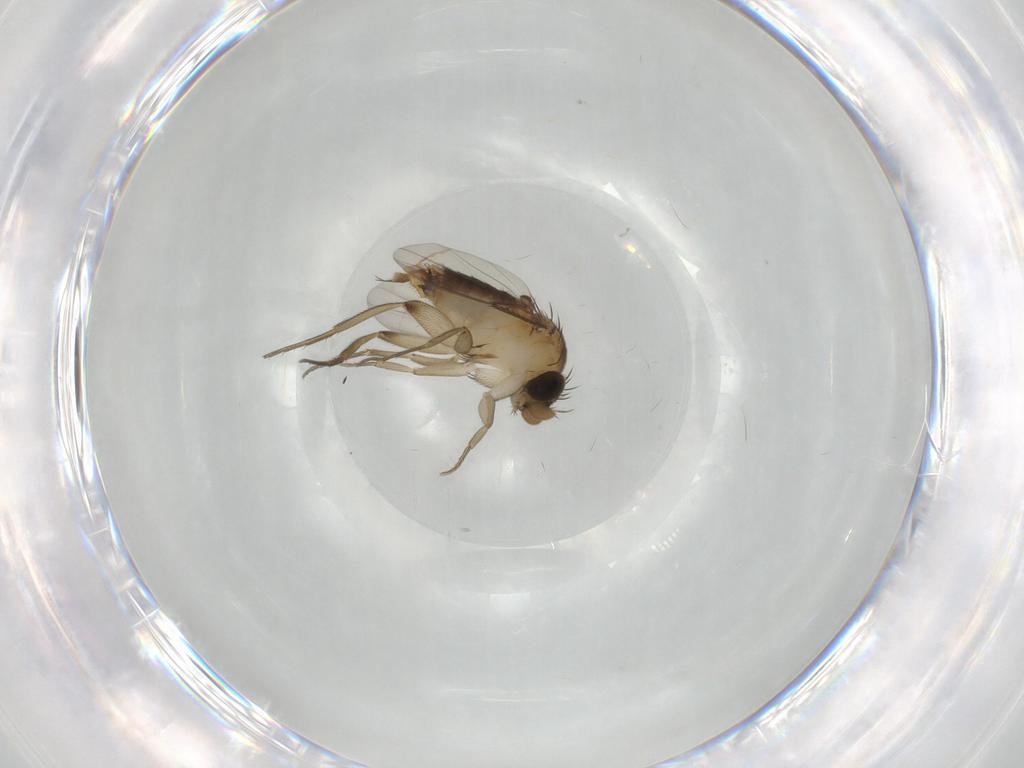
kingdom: Animalia
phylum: Arthropoda
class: Insecta
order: Diptera
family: Phoridae
